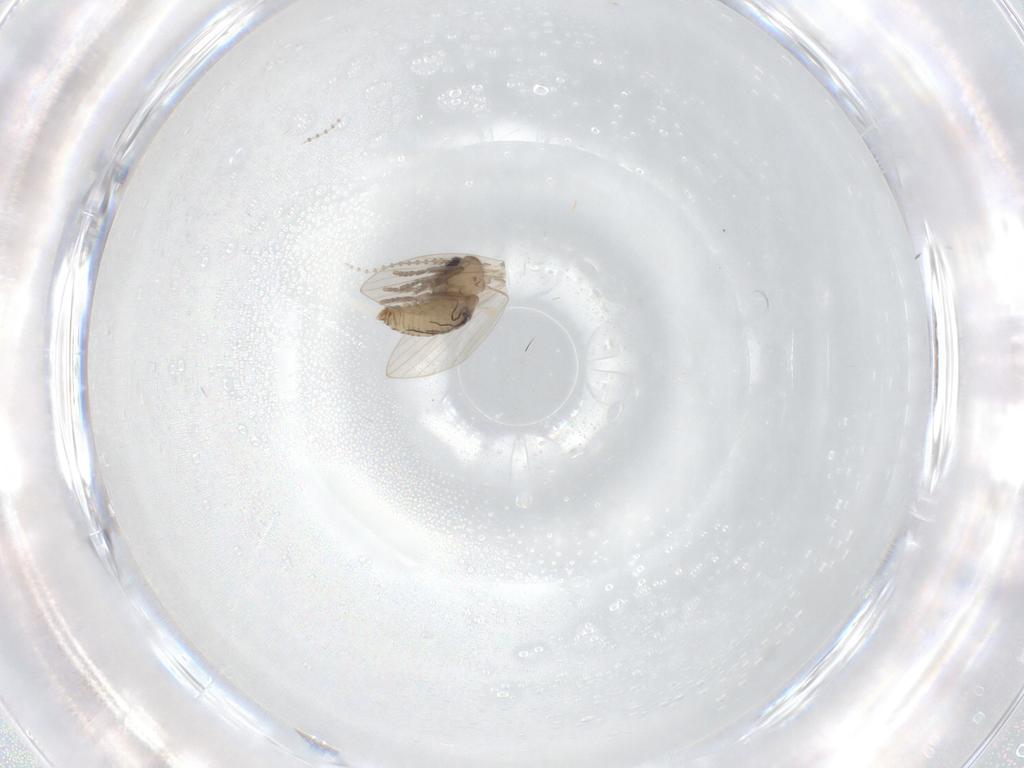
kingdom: Animalia
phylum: Arthropoda
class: Insecta
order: Diptera
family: Psychodidae
